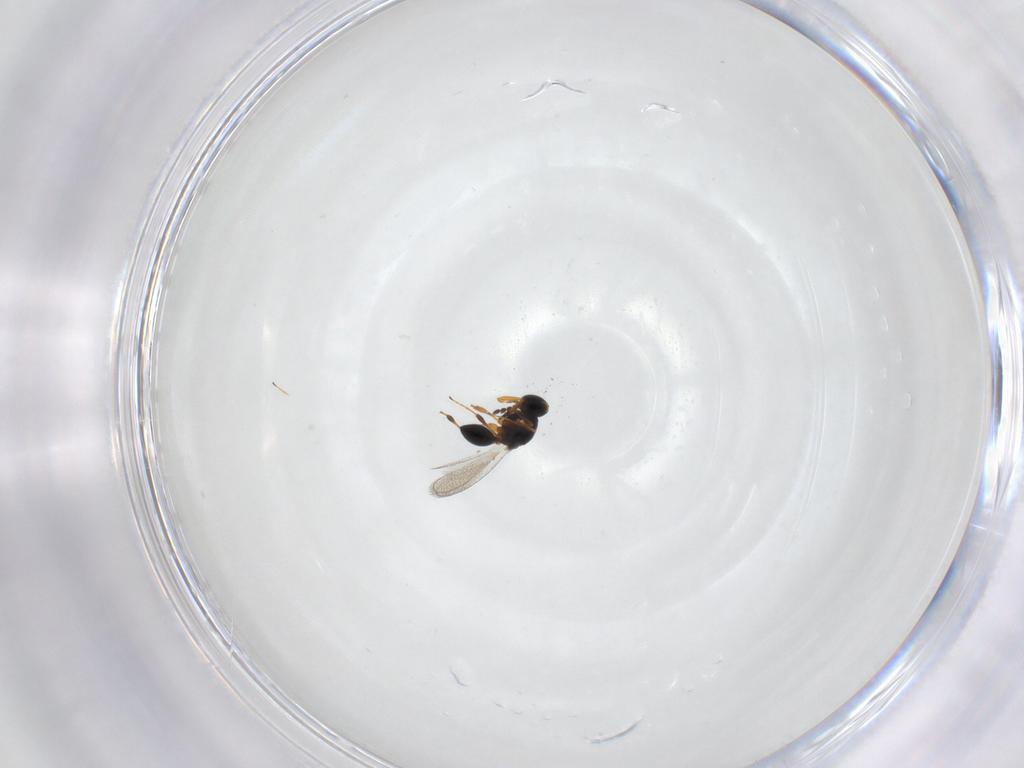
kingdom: Animalia
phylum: Arthropoda
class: Insecta
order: Hymenoptera
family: Platygastridae
